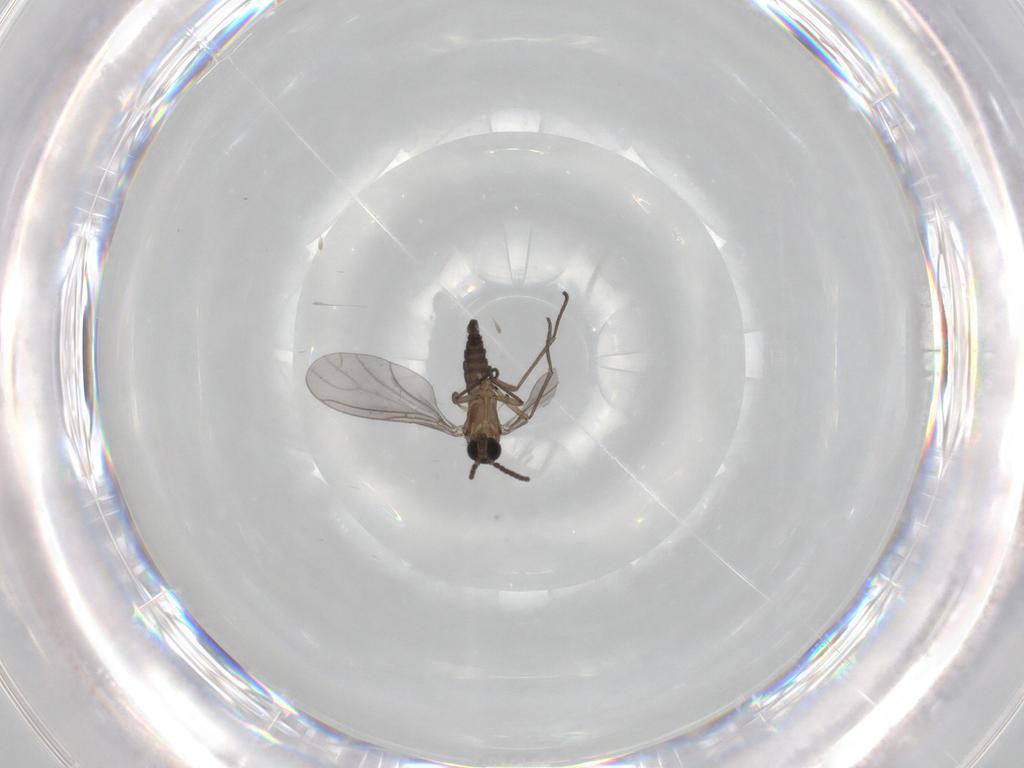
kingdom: Animalia
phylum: Arthropoda
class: Insecta
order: Diptera
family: Sciaridae
